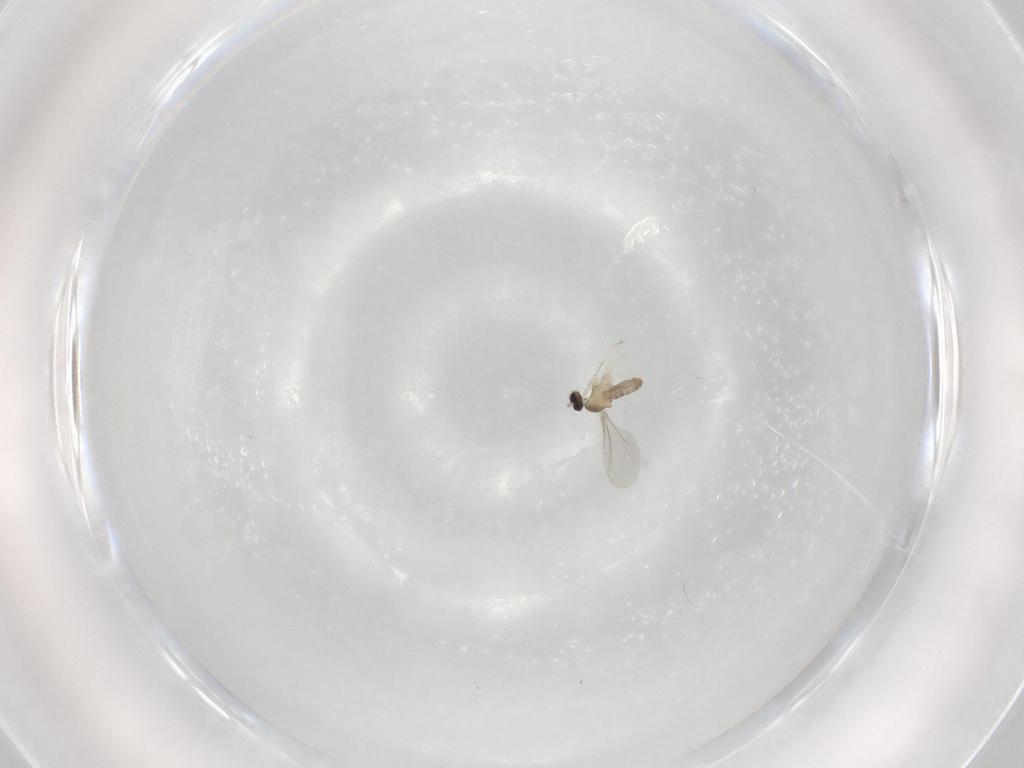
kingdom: Animalia
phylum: Arthropoda
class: Insecta
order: Diptera
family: Cecidomyiidae
